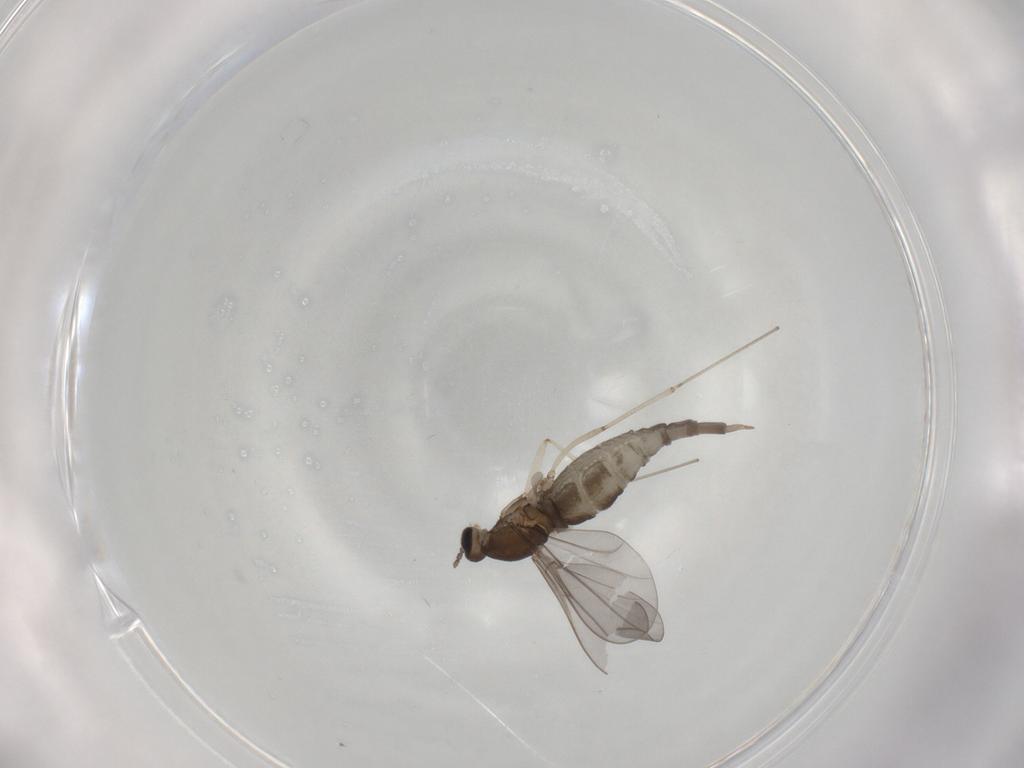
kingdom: Animalia
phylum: Arthropoda
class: Insecta
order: Diptera
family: Cecidomyiidae
